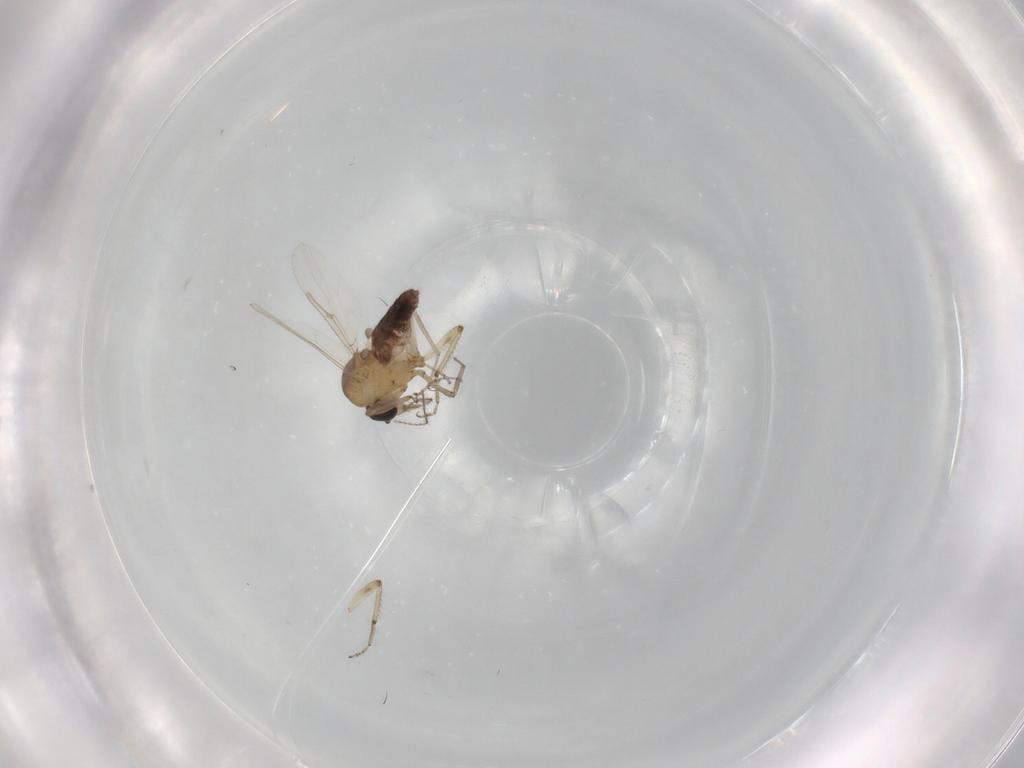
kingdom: Animalia
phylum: Arthropoda
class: Insecta
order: Diptera
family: Ceratopogonidae
